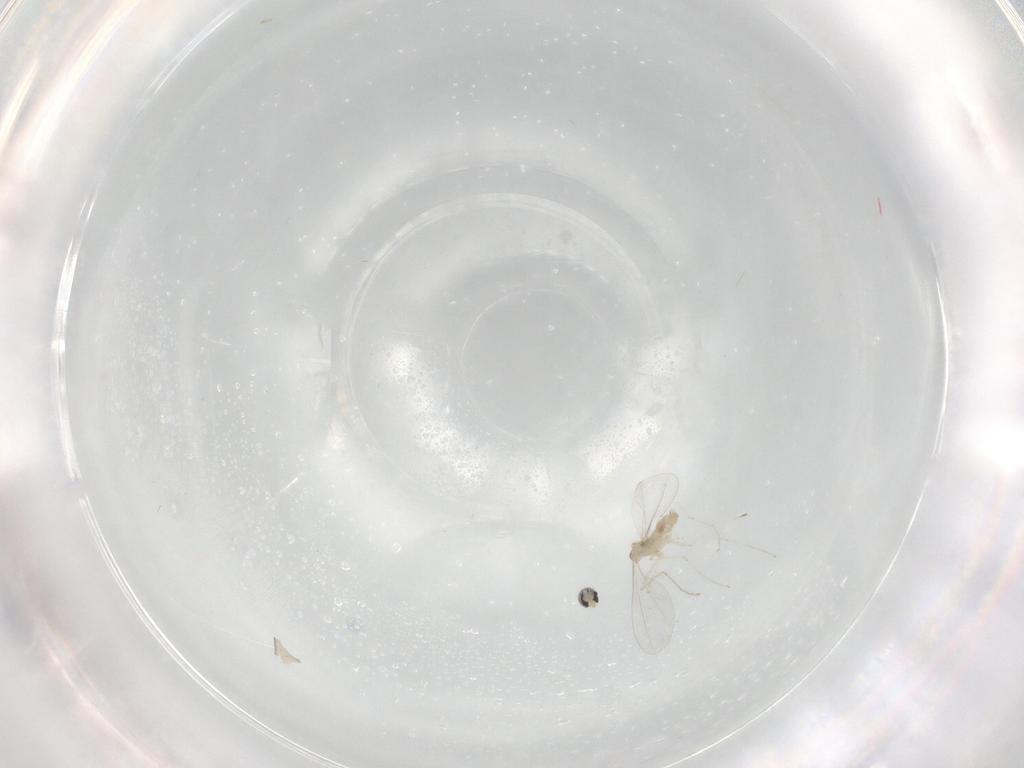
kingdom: Animalia
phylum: Arthropoda
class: Insecta
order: Diptera
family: Cecidomyiidae
